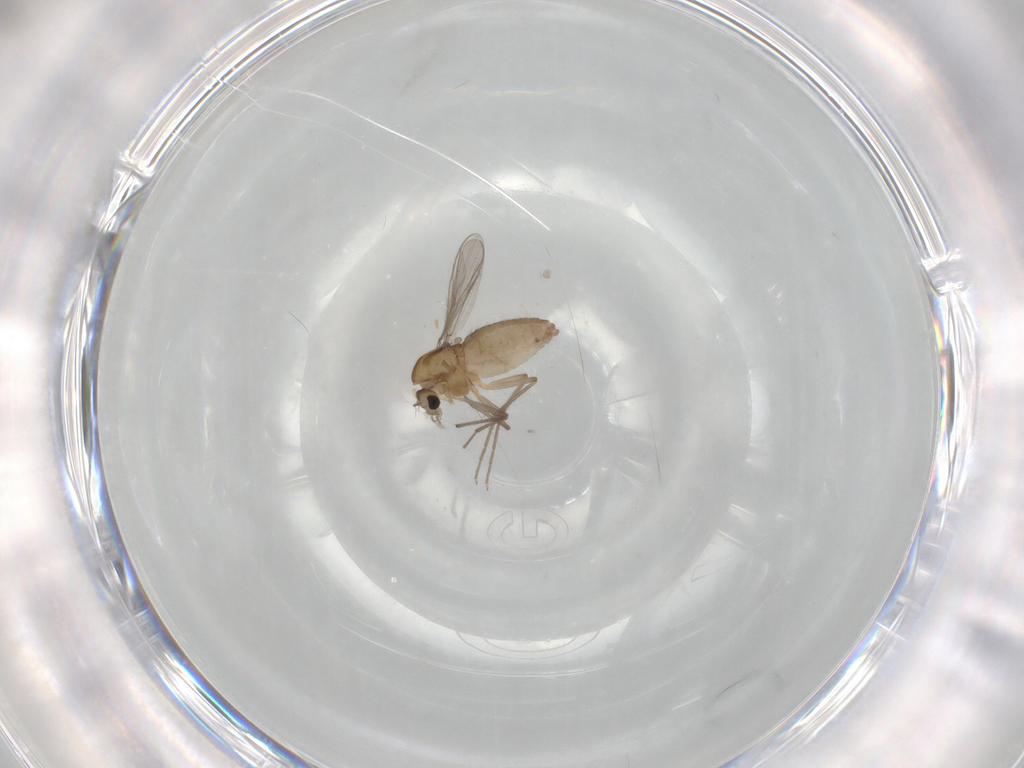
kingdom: Animalia
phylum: Arthropoda
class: Insecta
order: Diptera
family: Chironomidae
